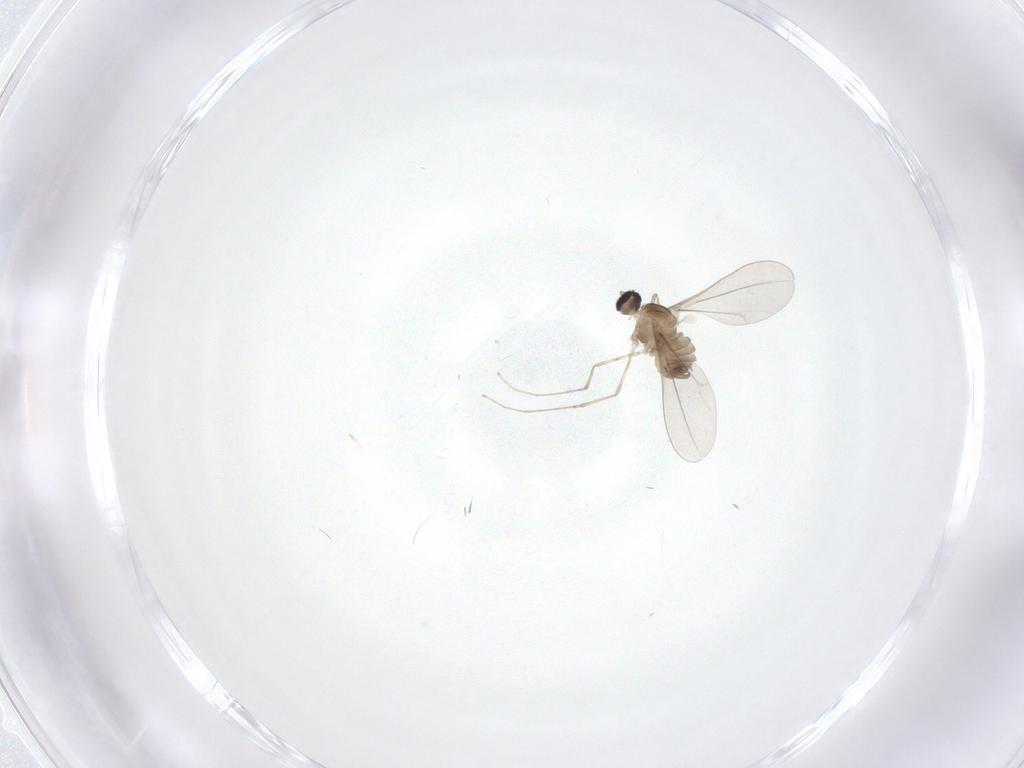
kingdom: Animalia
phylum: Arthropoda
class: Insecta
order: Diptera
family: Cecidomyiidae
